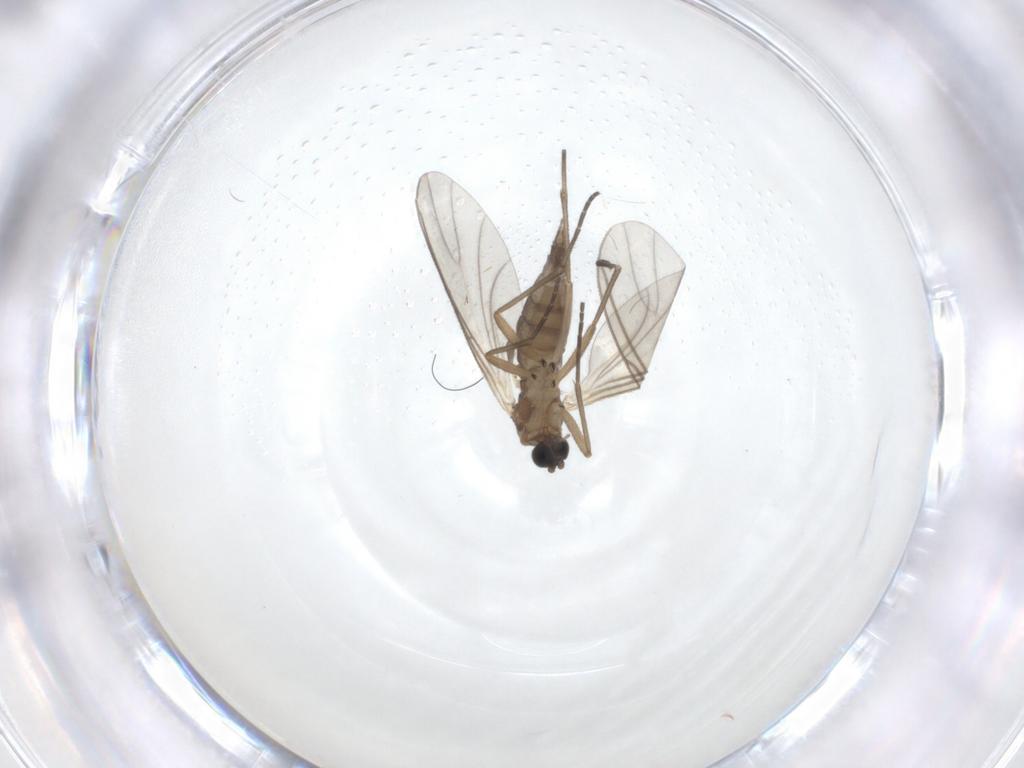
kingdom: Animalia
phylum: Arthropoda
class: Insecta
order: Diptera
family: Sciaridae
